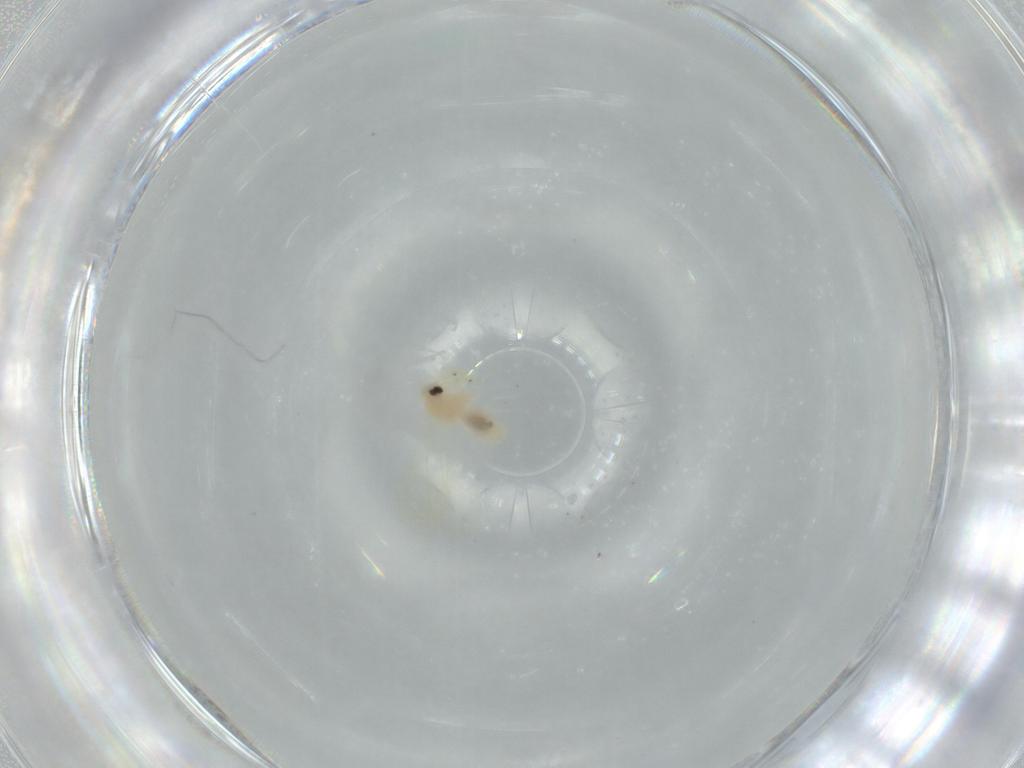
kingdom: Animalia
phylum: Arthropoda
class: Insecta
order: Hemiptera
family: Aleyrodidae
